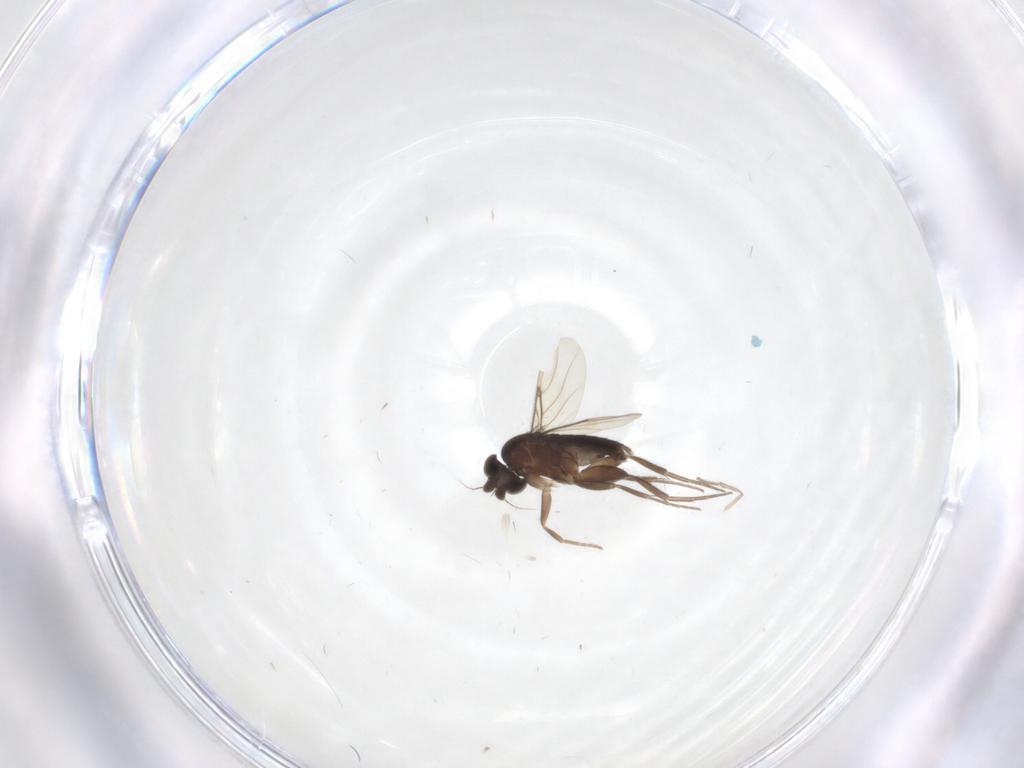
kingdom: Animalia
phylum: Arthropoda
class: Insecta
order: Diptera
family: Phoridae
